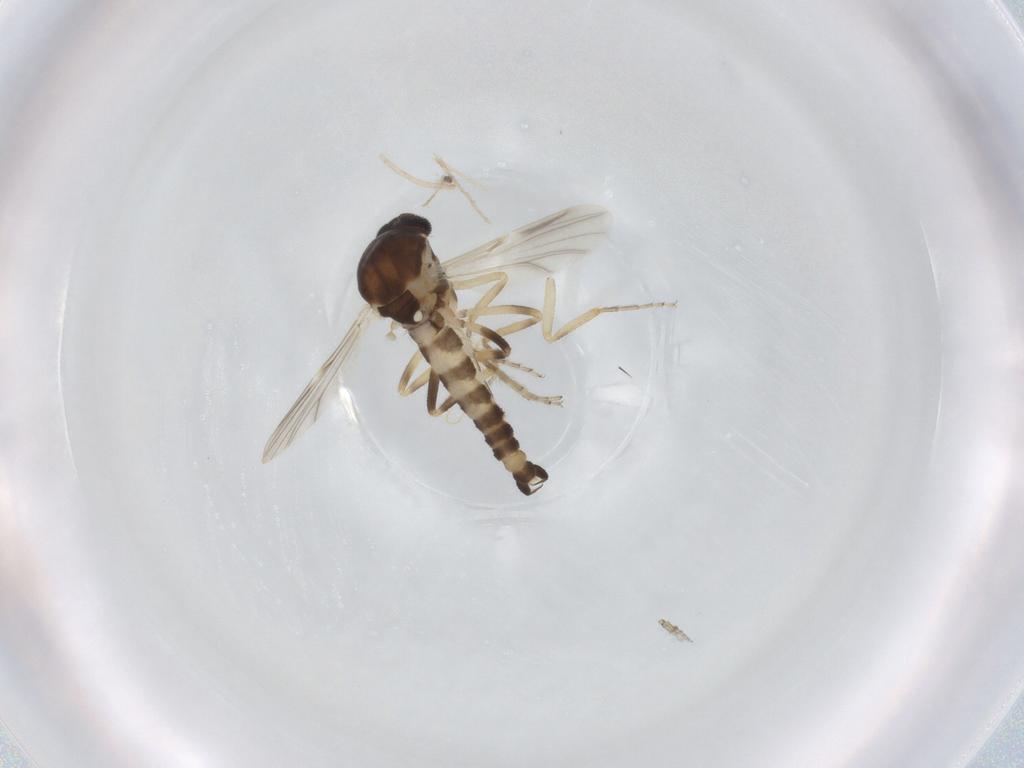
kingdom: Animalia
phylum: Arthropoda
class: Insecta
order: Diptera
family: Ceratopogonidae
